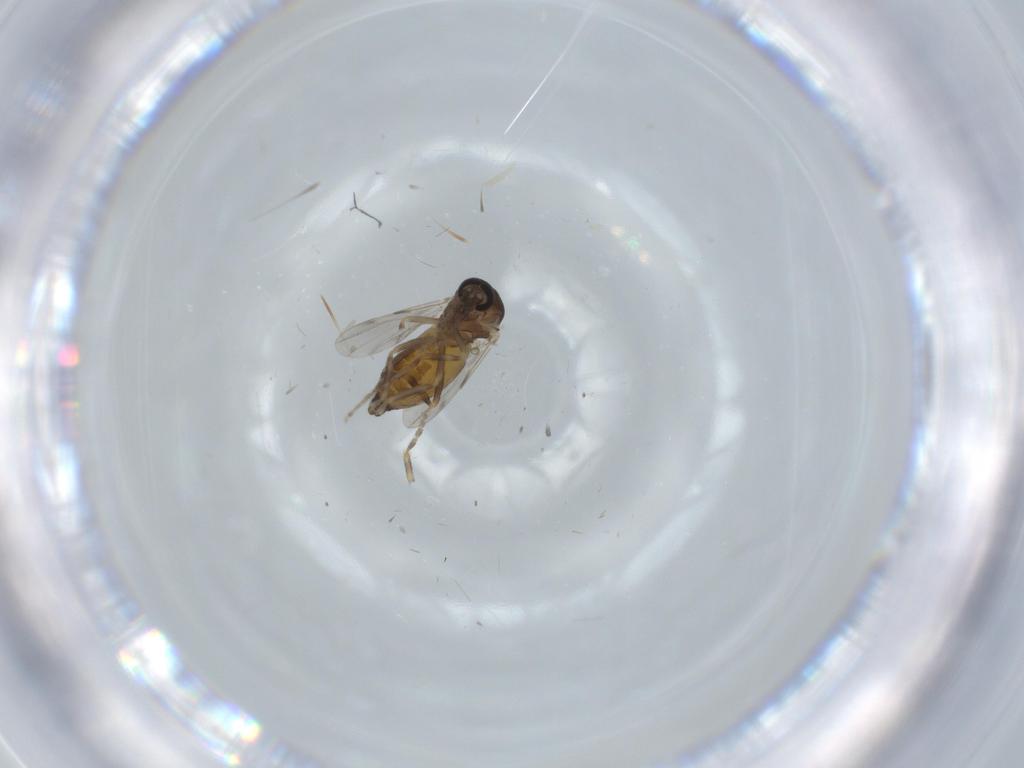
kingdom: Animalia
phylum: Arthropoda
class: Insecta
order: Diptera
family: Ceratopogonidae
